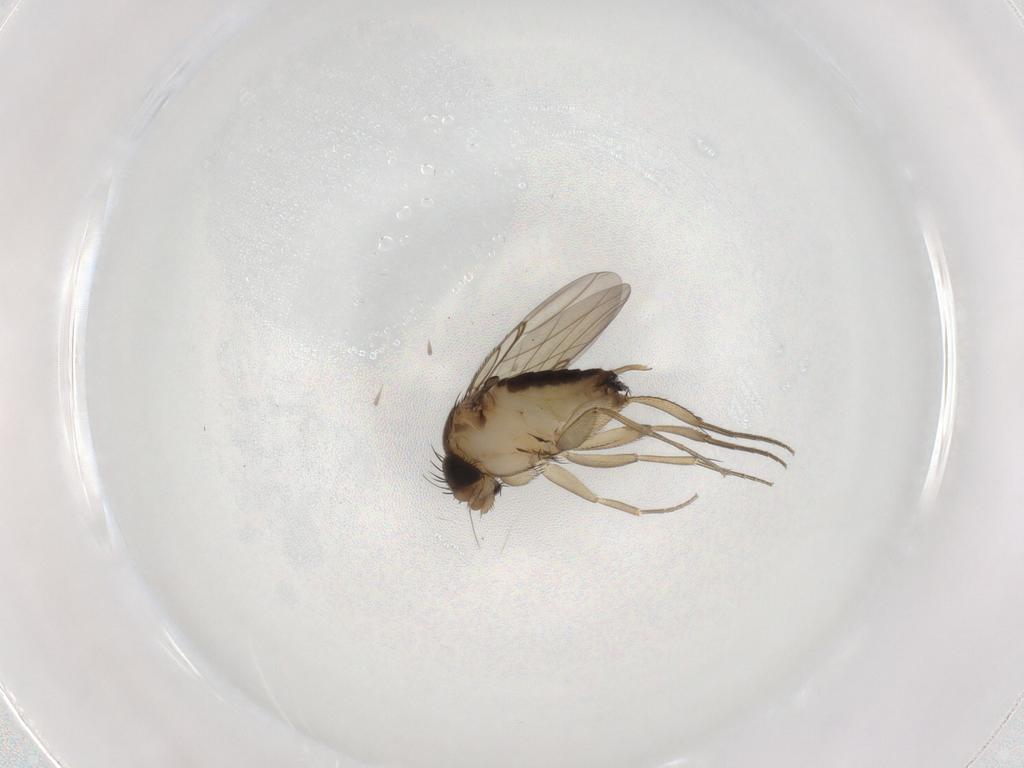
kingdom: Animalia
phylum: Arthropoda
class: Insecta
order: Diptera
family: Phoridae
